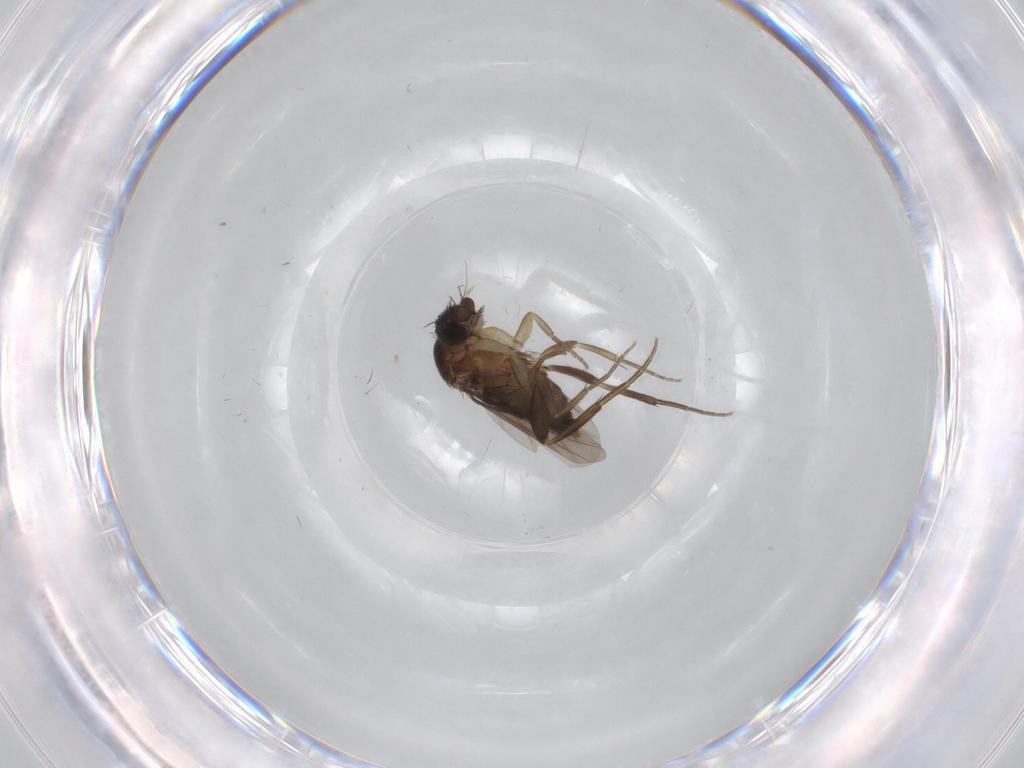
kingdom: Animalia
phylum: Arthropoda
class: Insecta
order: Diptera
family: Phoridae
